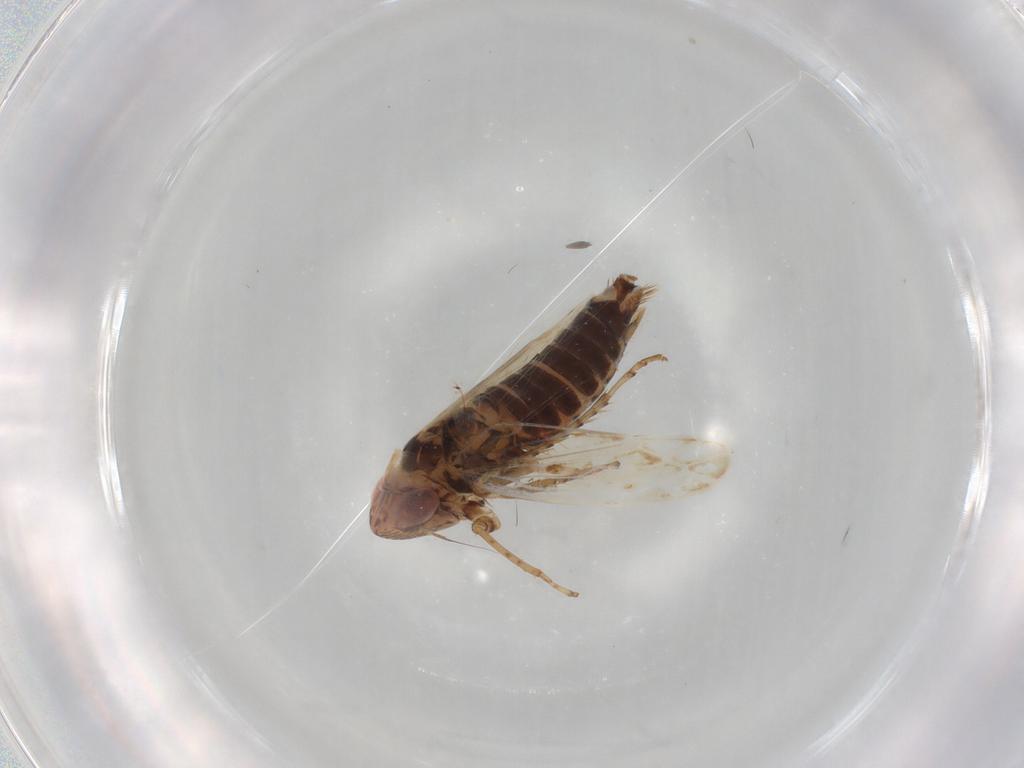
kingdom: Animalia
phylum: Arthropoda
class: Insecta
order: Hemiptera
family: Cicadellidae
